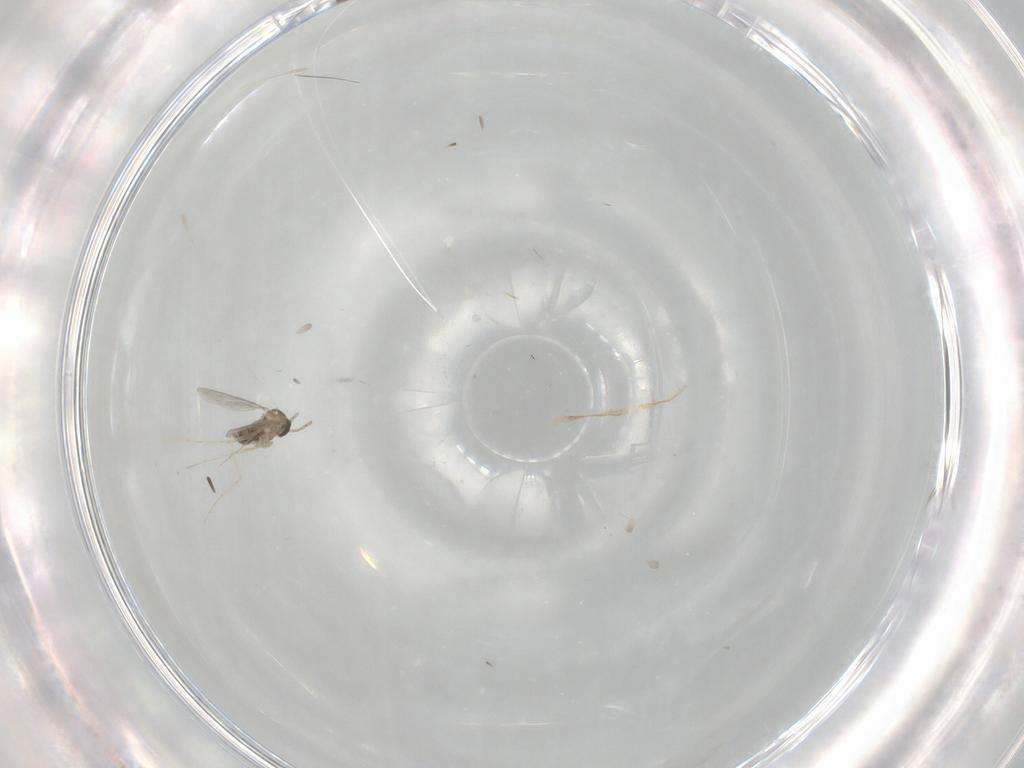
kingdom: Animalia
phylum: Arthropoda
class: Insecta
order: Diptera
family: Cecidomyiidae
